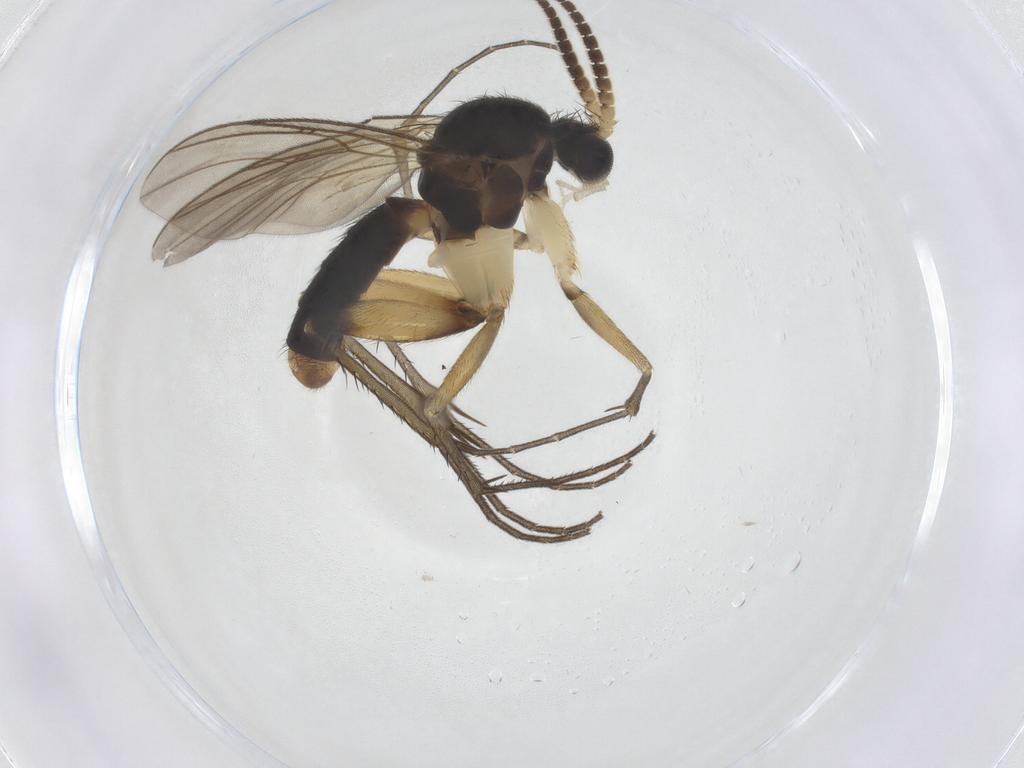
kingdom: Animalia
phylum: Arthropoda
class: Insecta
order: Diptera
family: Mycetophilidae
